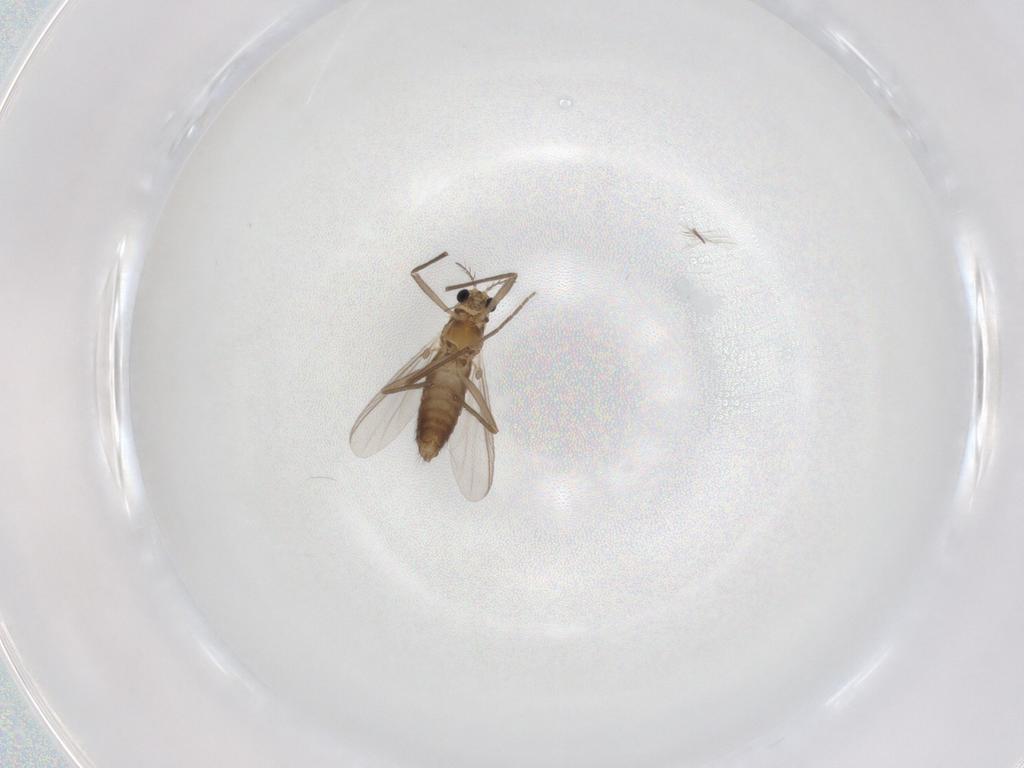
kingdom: Animalia
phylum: Arthropoda
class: Insecta
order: Diptera
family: Chironomidae
